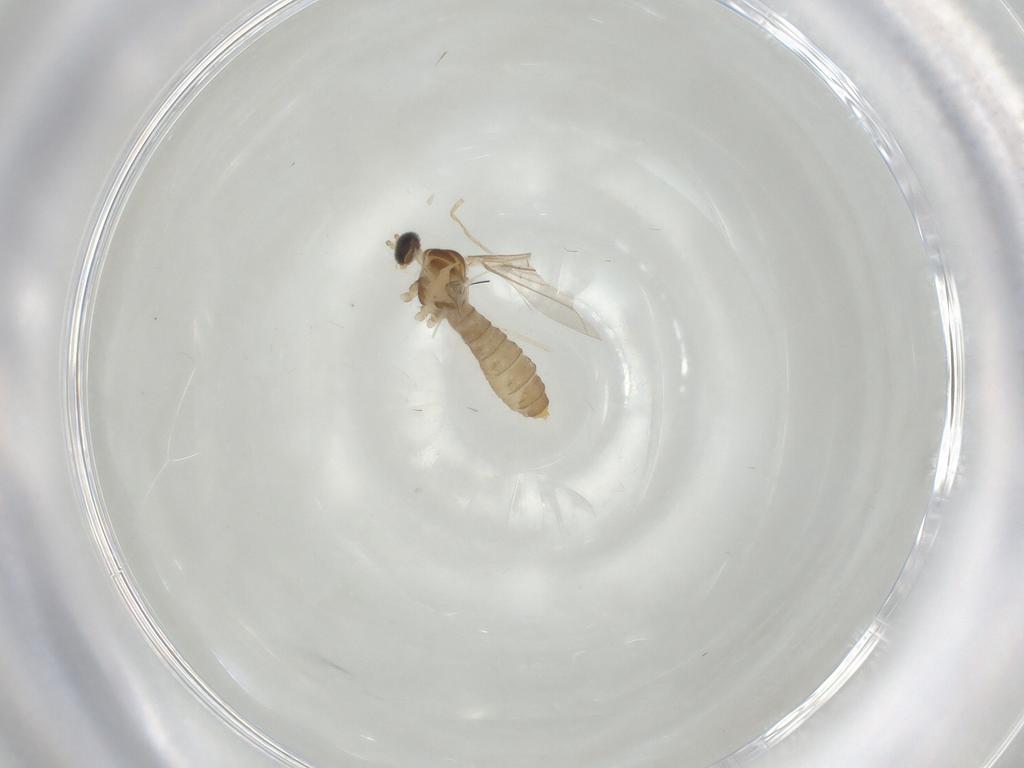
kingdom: Animalia
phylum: Arthropoda
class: Insecta
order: Diptera
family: Cecidomyiidae
